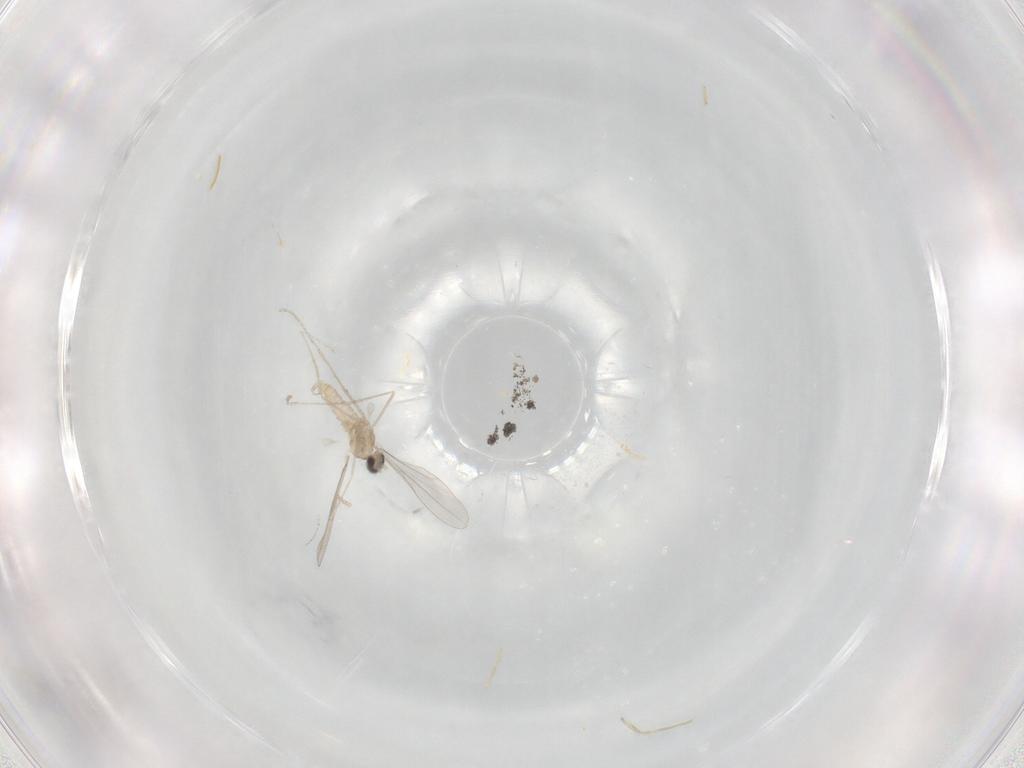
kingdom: Animalia
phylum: Arthropoda
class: Insecta
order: Diptera
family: Cecidomyiidae
